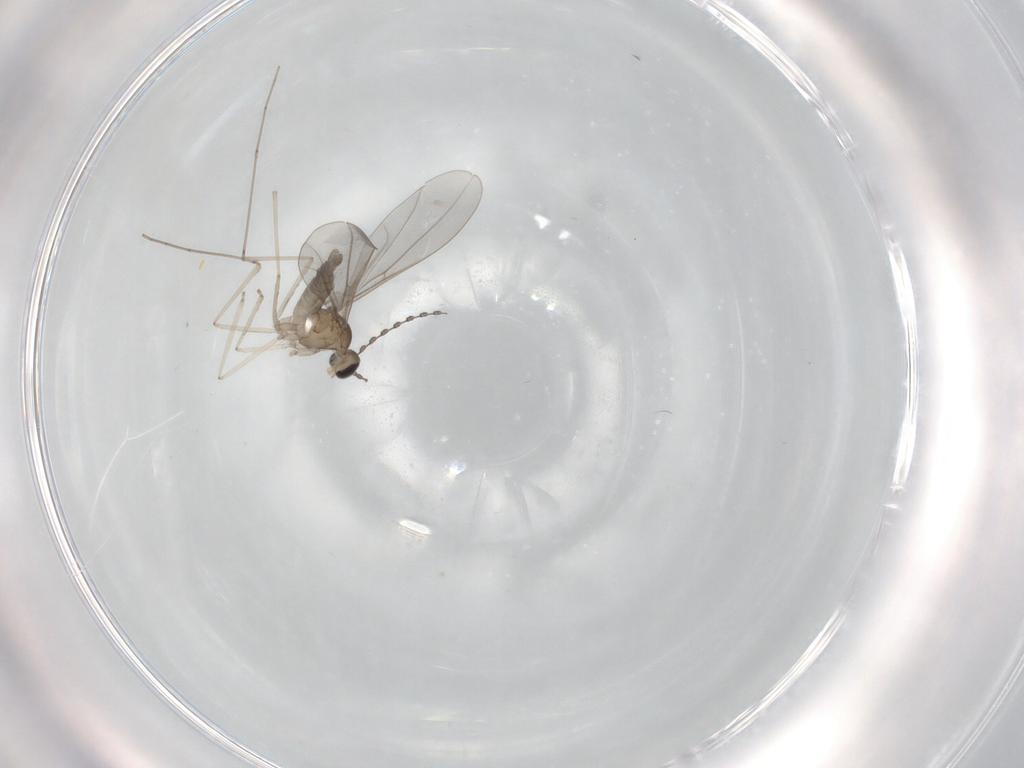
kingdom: Animalia
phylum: Arthropoda
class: Insecta
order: Diptera
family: Cecidomyiidae
